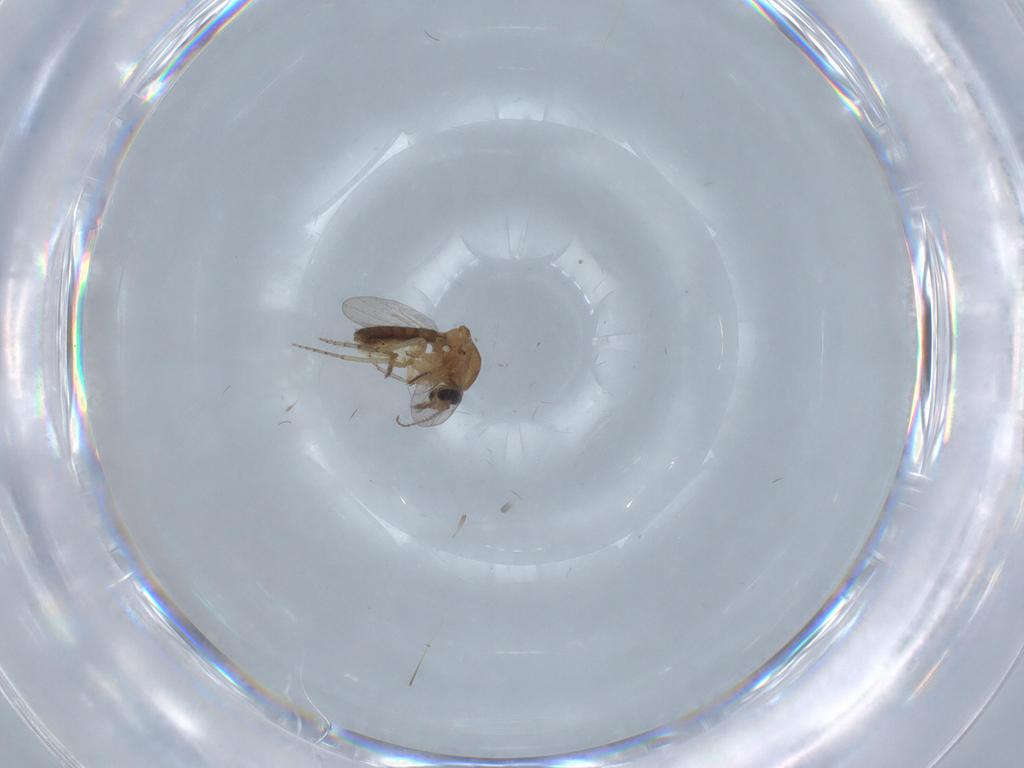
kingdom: Animalia
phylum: Arthropoda
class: Insecta
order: Diptera
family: Ceratopogonidae
